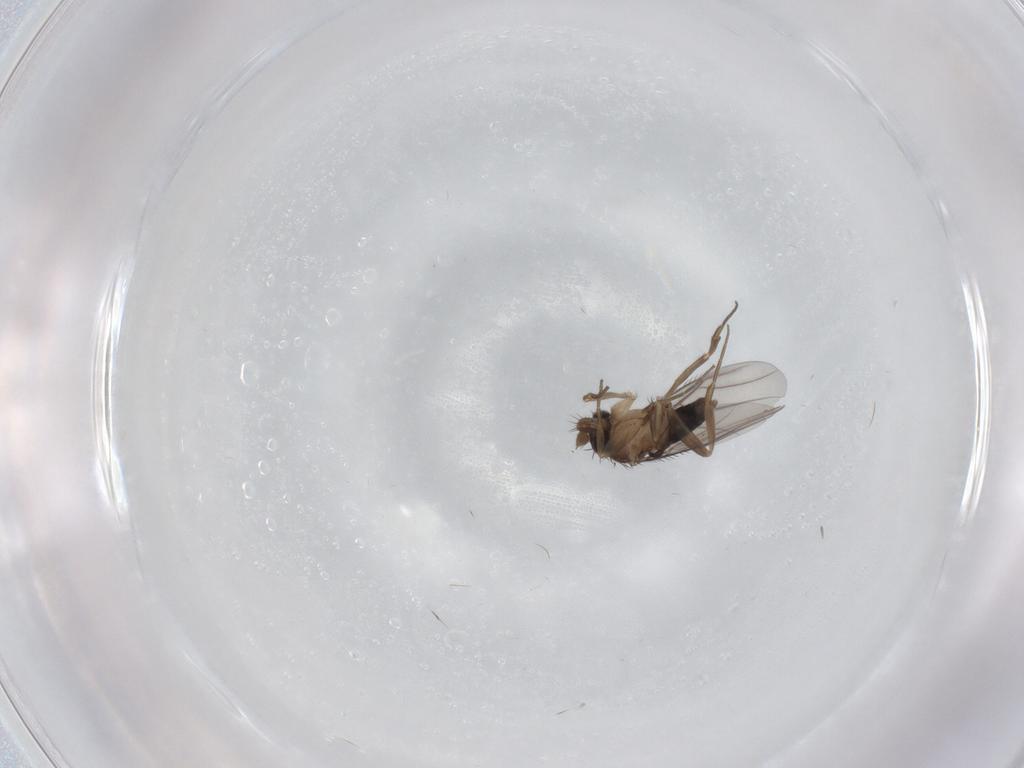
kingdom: Animalia
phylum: Arthropoda
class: Insecta
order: Diptera
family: Phoridae
